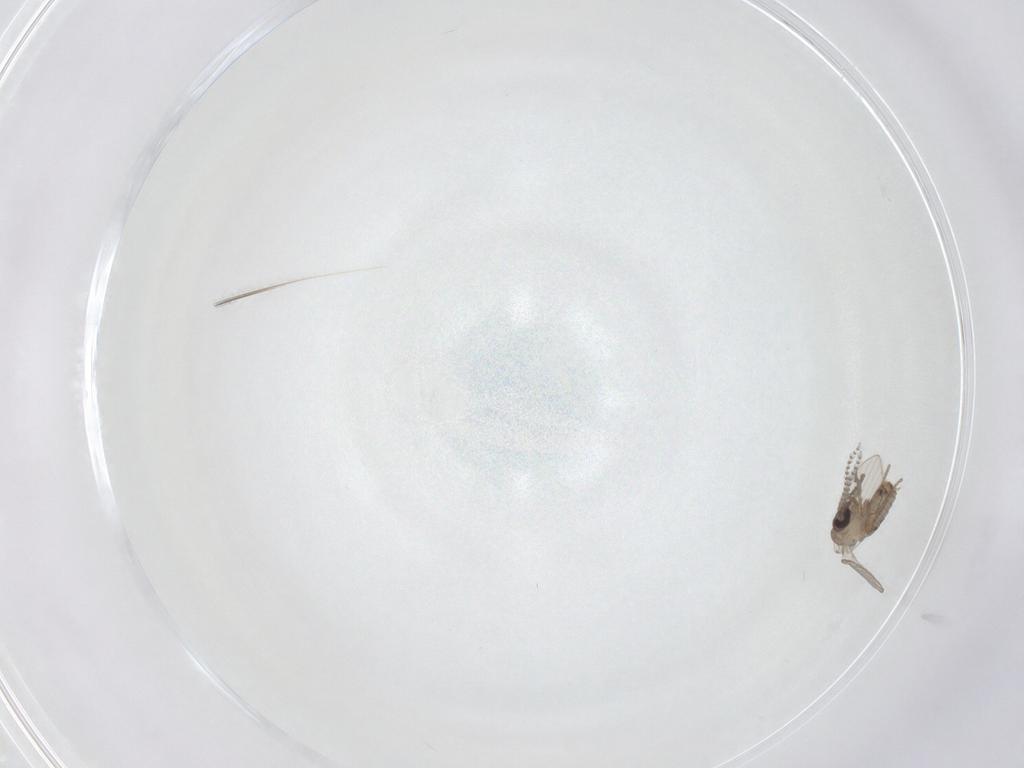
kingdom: Animalia
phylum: Arthropoda
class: Insecta
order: Diptera
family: Psychodidae
